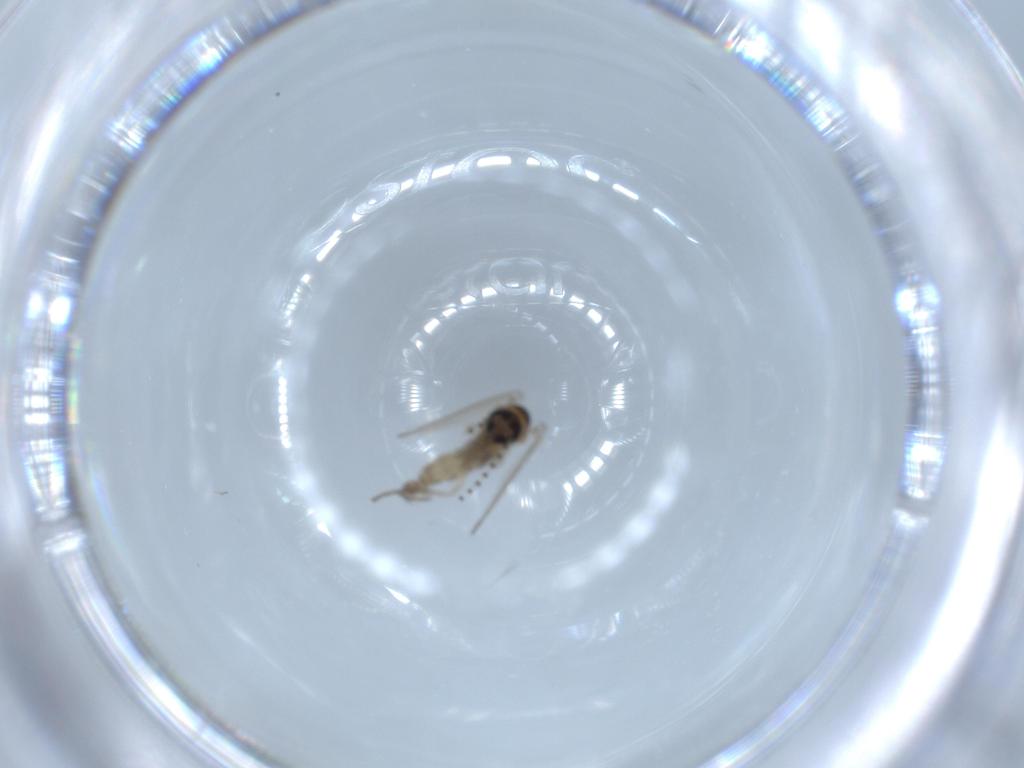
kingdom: Animalia
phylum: Arthropoda
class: Insecta
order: Diptera
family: Psychodidae
